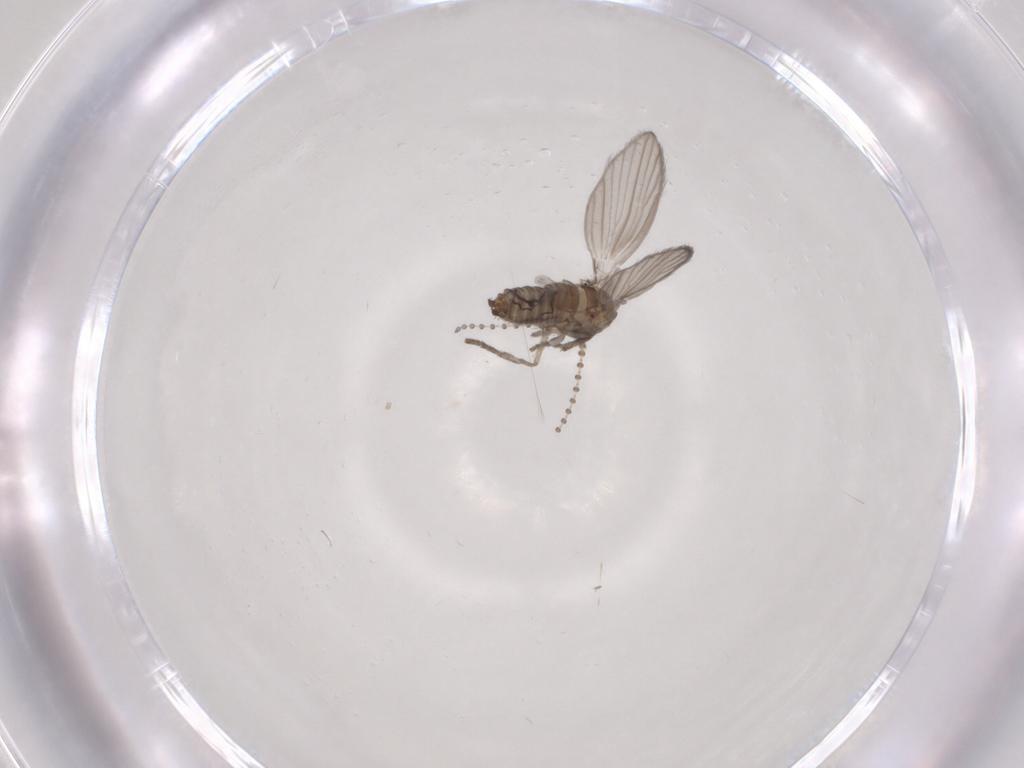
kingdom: Animalia
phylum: Arthropoda
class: Insecta
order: Diptera
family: Psychodidae
